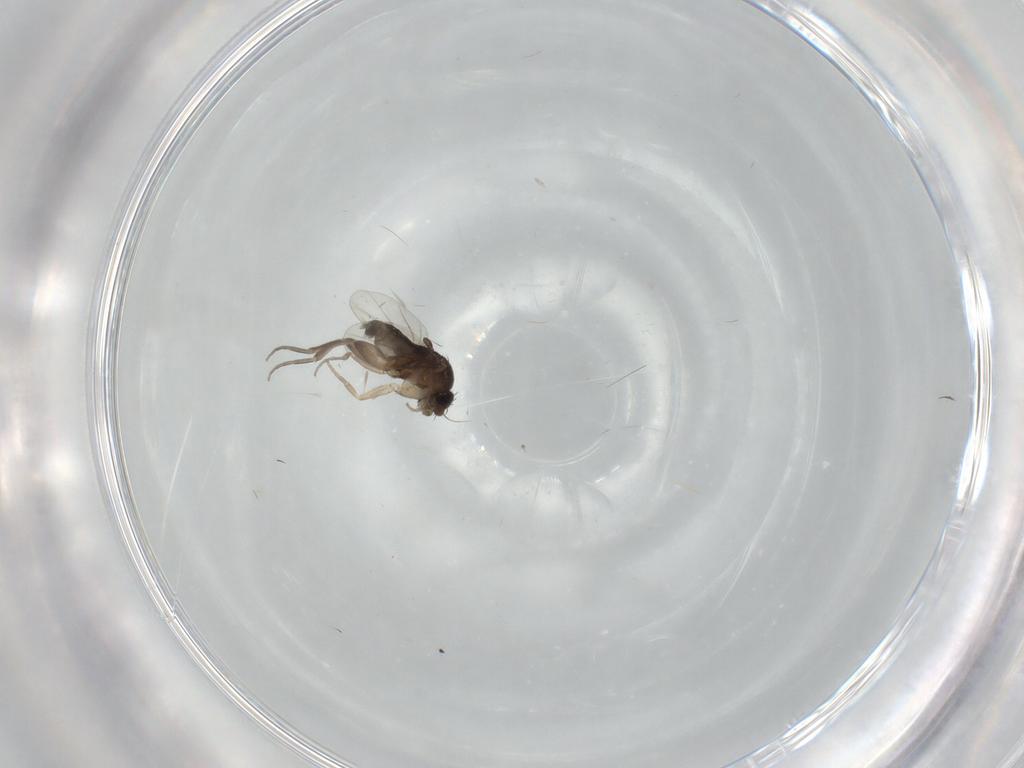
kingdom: Animalia
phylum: Arthropoda
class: Insecta
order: Diptera
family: Phoridae
